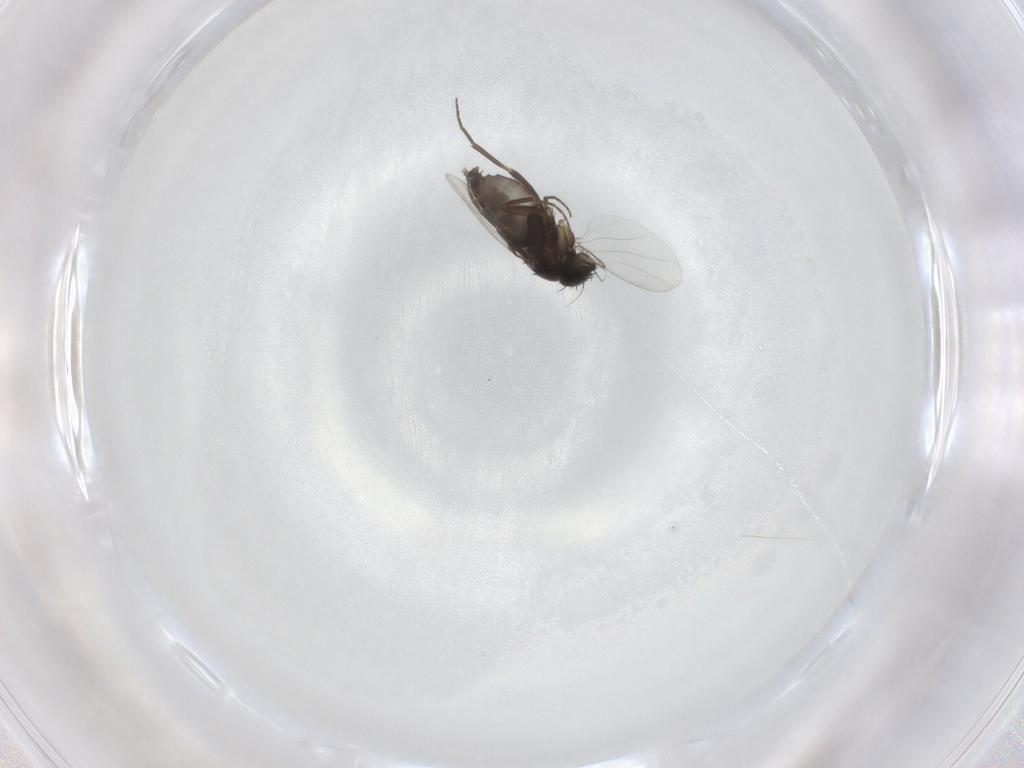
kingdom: Animalia
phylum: Arthropoda
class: Insecta
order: Diptera
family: Phoridae
